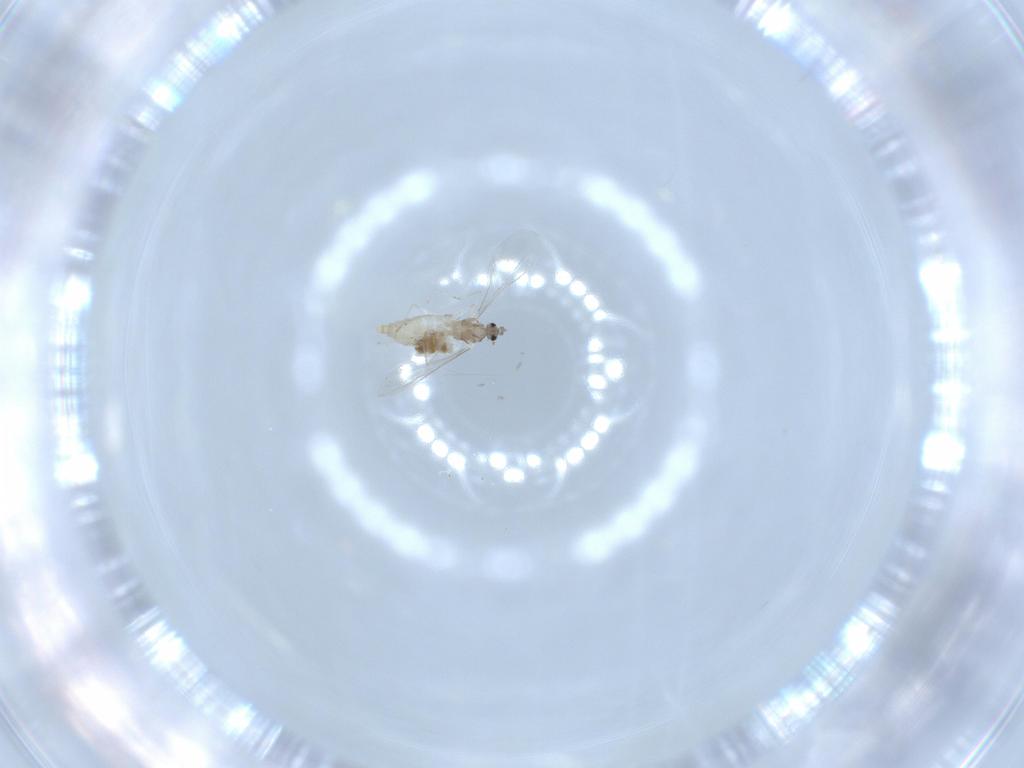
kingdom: Animalia
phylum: Arthropoda
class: Insecta
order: Diptera
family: Cecidomyiidae
